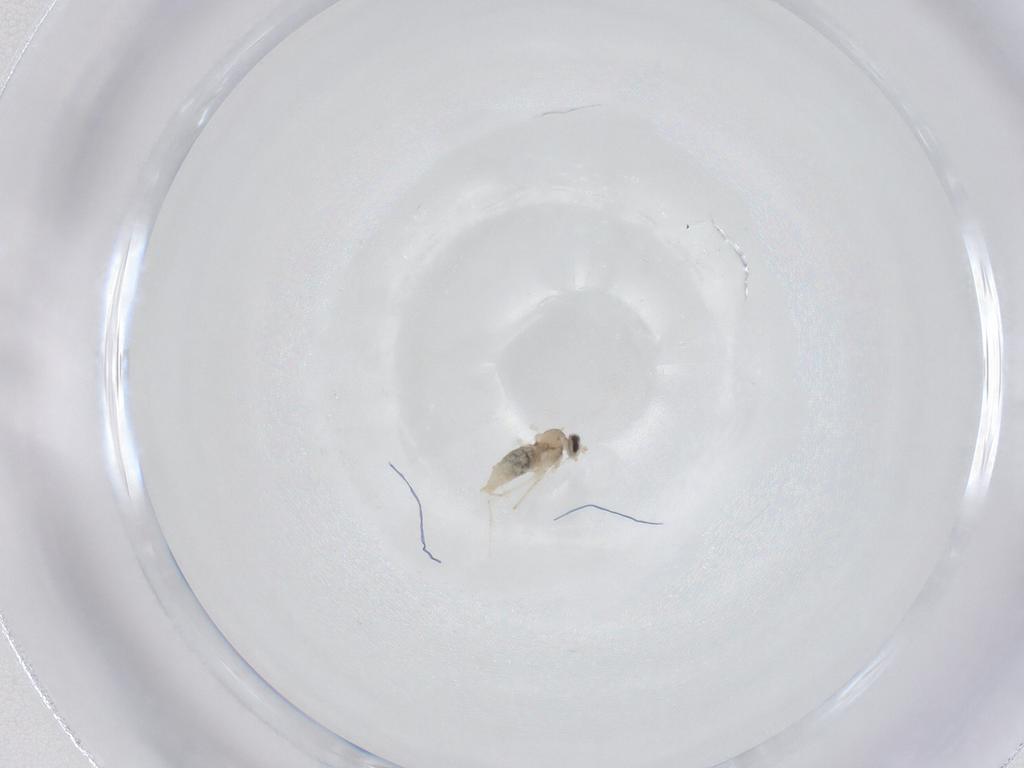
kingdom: Animalia
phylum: Arthropoda
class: Insecta
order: Diptera
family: Cecidomyiidae
